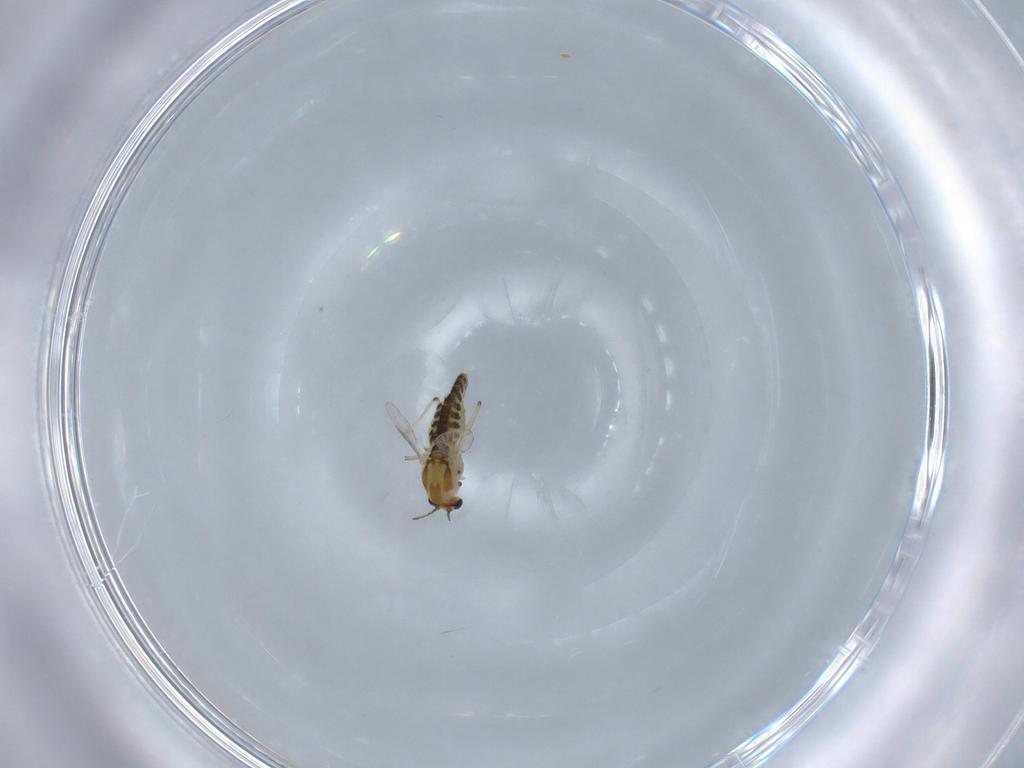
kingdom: Animalia
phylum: Arthropoda
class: Insecta
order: Diptera
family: Chironomidae
